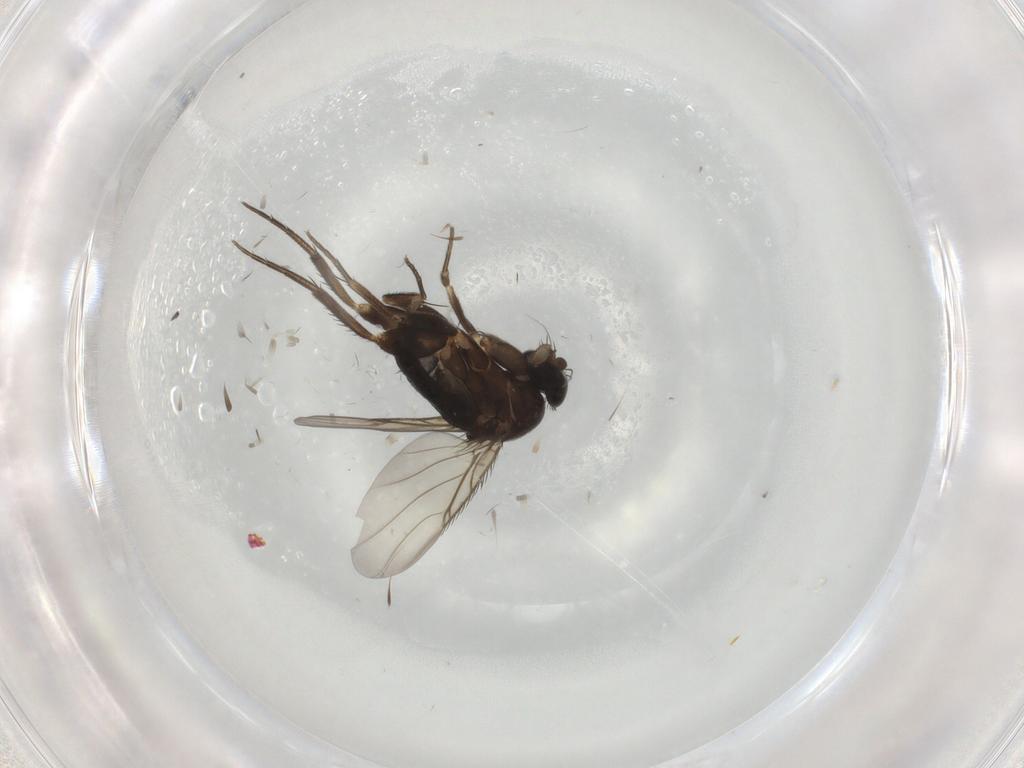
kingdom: Animalia
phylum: Arthropoda
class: Insecta
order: Diptera
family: Phoridae
